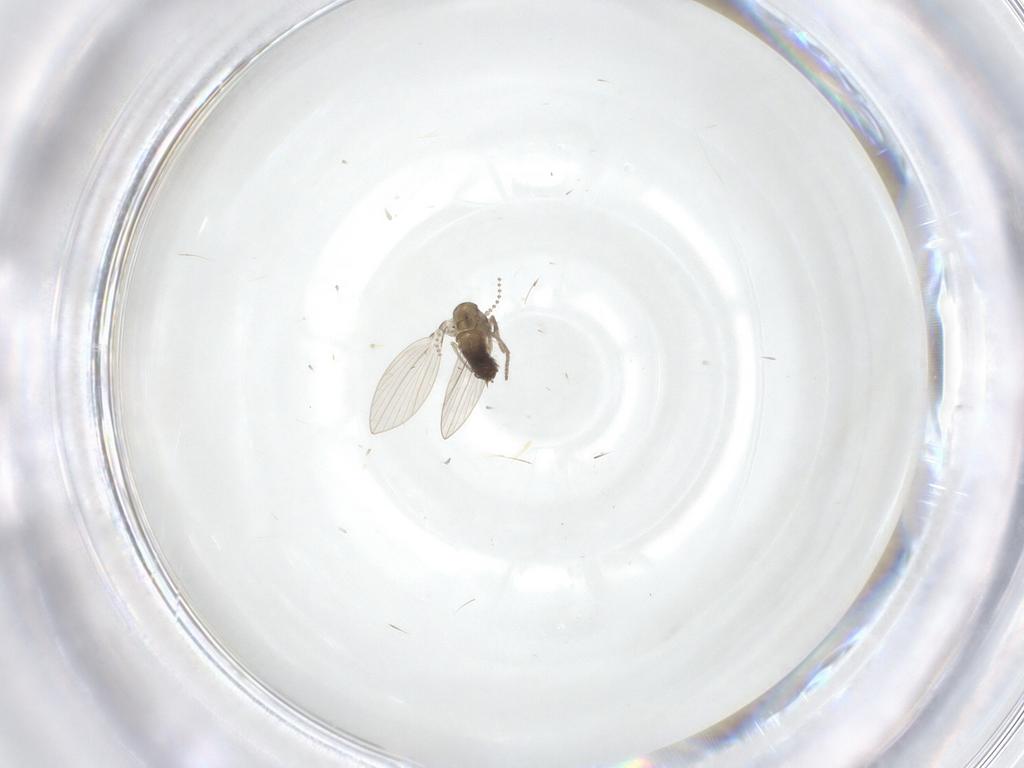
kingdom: Animalia
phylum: Arthropoda
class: Insecta
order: Diptera
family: Psychodidae
